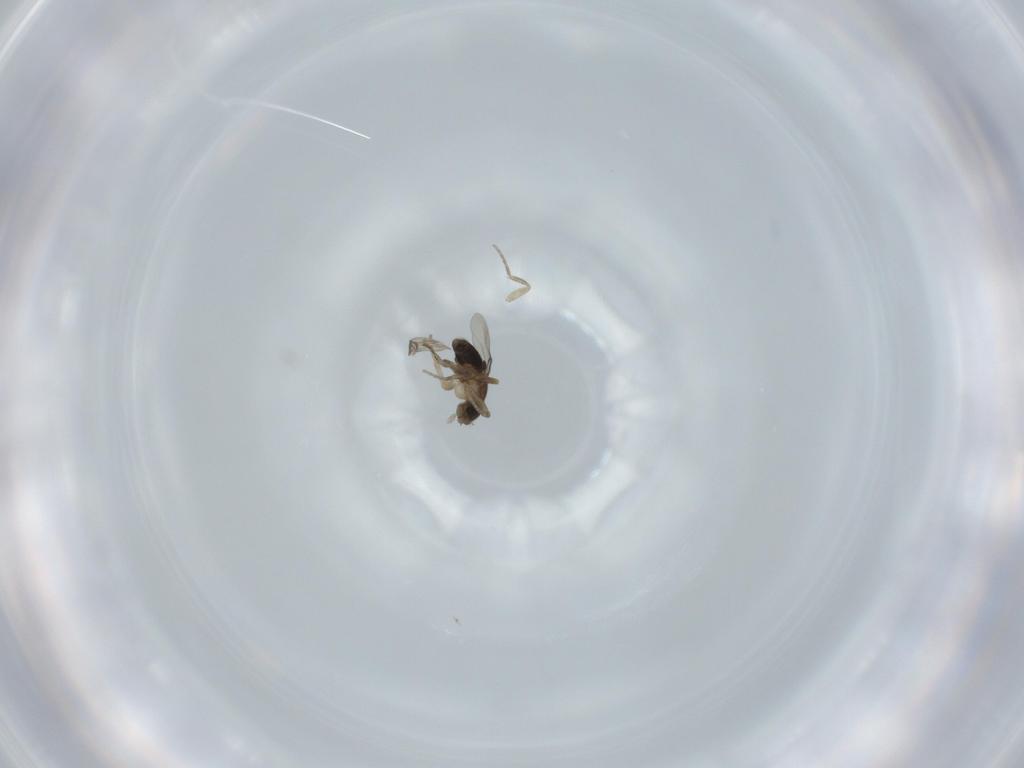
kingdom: Animalia
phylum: Arthropoda
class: Insecta
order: Diptera
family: Phoridae
